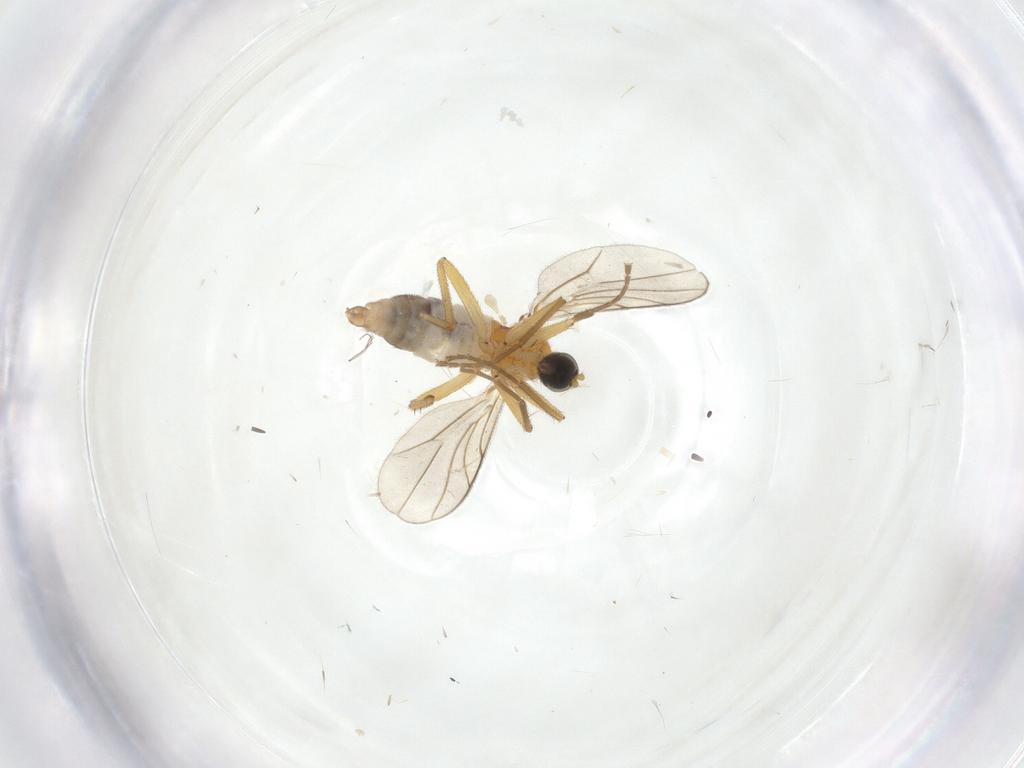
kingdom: Animalia
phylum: Arthropoda
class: Insecta
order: Diptera
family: Hybotidae
